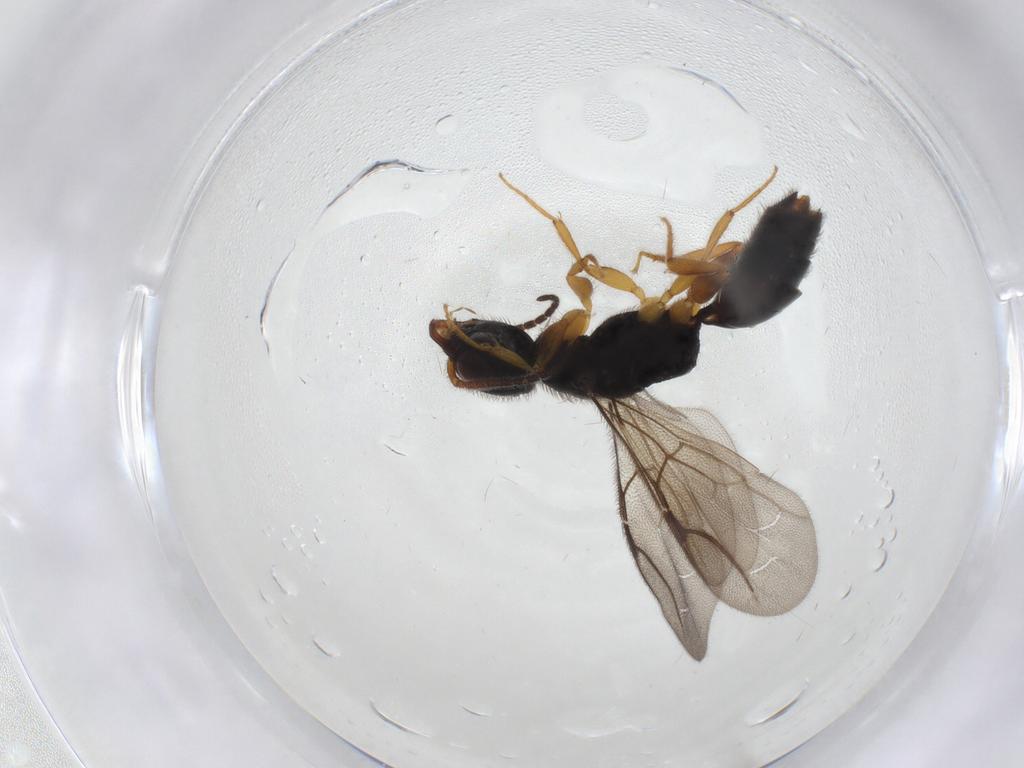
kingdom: Animalia
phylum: Arthropoda
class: Insecta
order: Hymenoptera
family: Bethylidae
